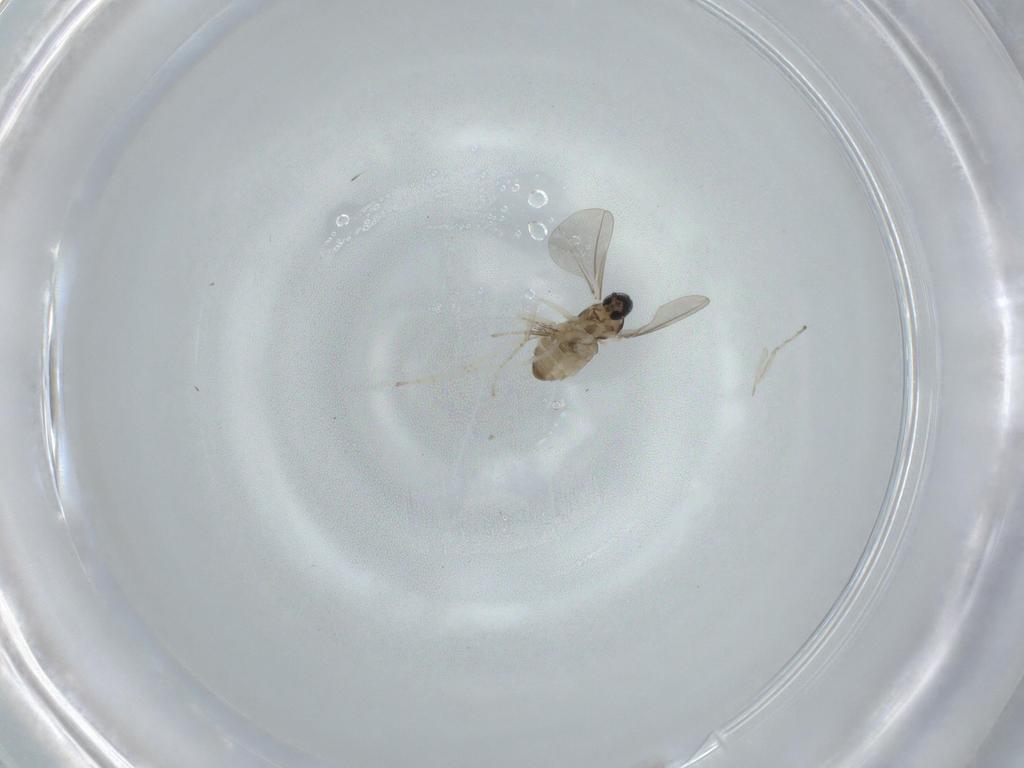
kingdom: Animalia
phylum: Arthropoda
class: Insecta
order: Diptera
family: Cecidomyiidae
